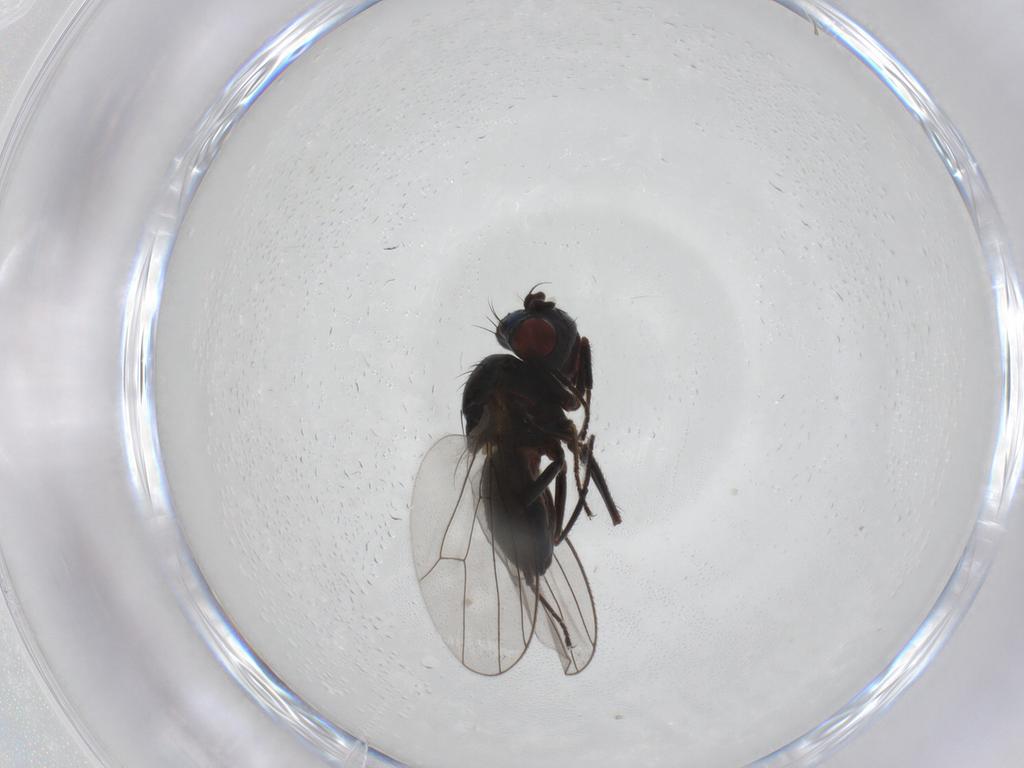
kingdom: Animalia
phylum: Arthropoda
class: Insecta
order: Diptera
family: Ephydridae
